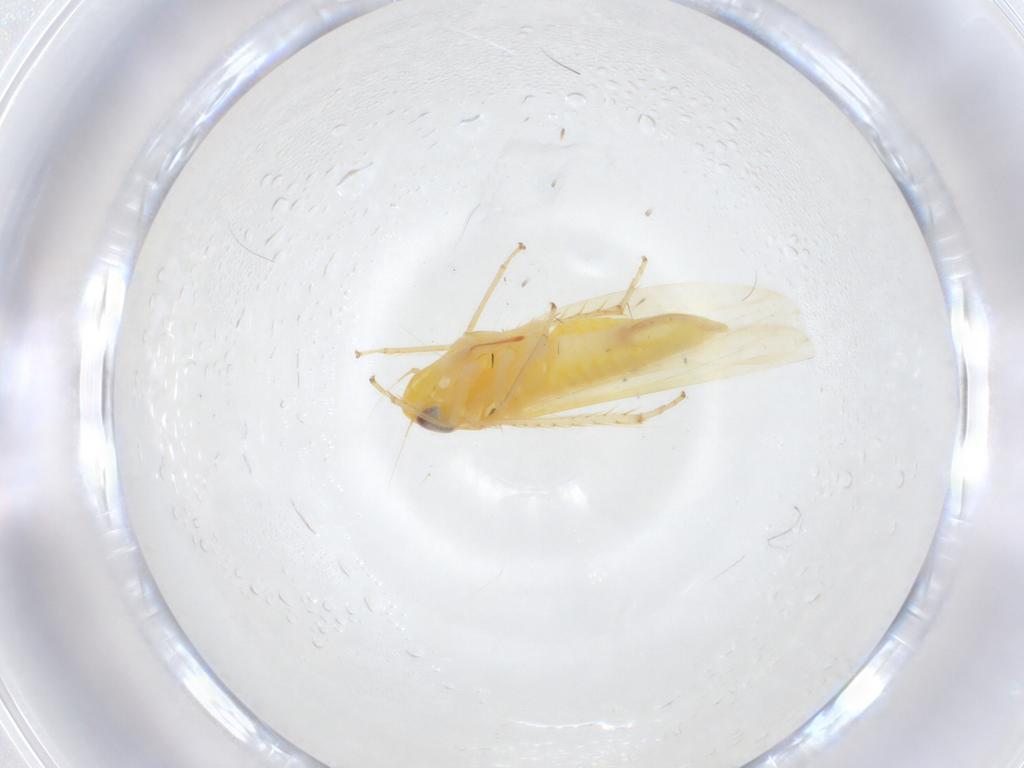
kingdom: Animalia
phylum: Arthropoda
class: Insecta
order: Hemiptera
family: Cicadellidae
